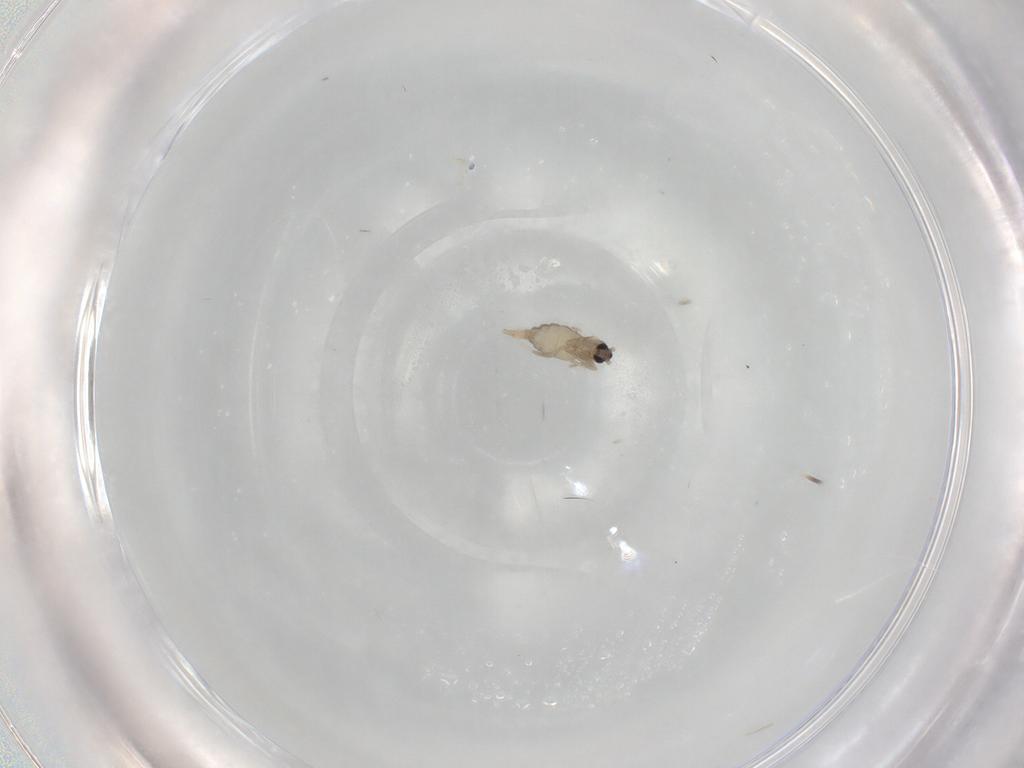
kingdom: Animalia
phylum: Arthropoda
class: Insecta
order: Diptera
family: Cecidomyiidae
